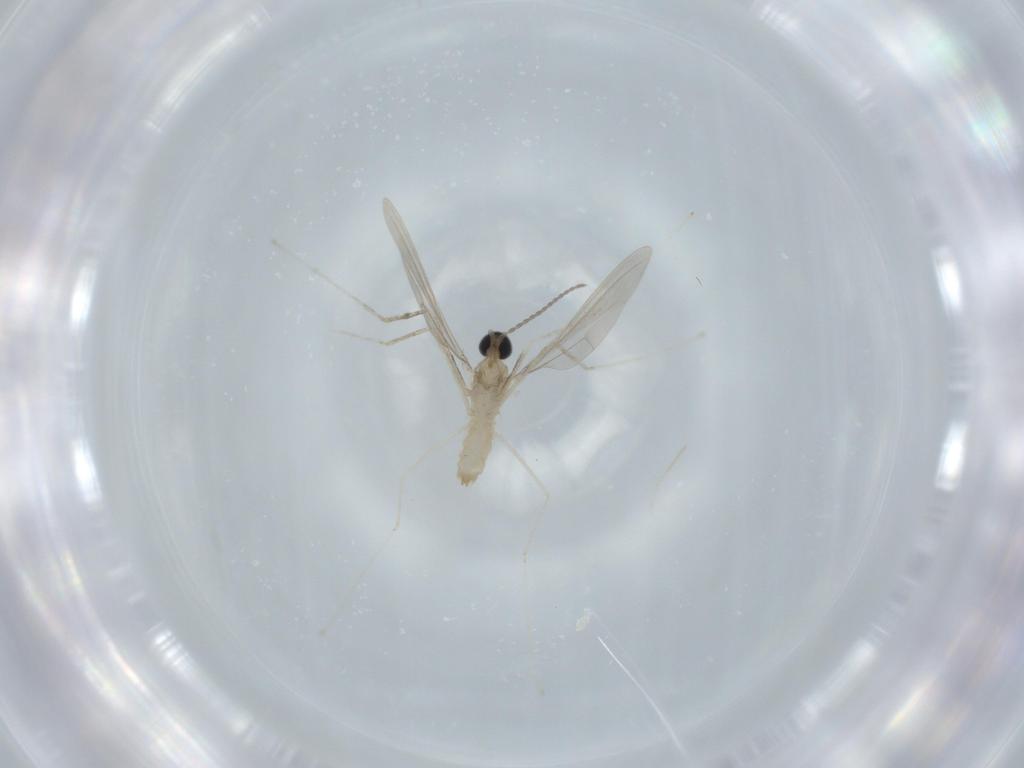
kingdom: Animalia
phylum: Arthropoda
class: Insecta
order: Diptera
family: Cecidomyiidae
